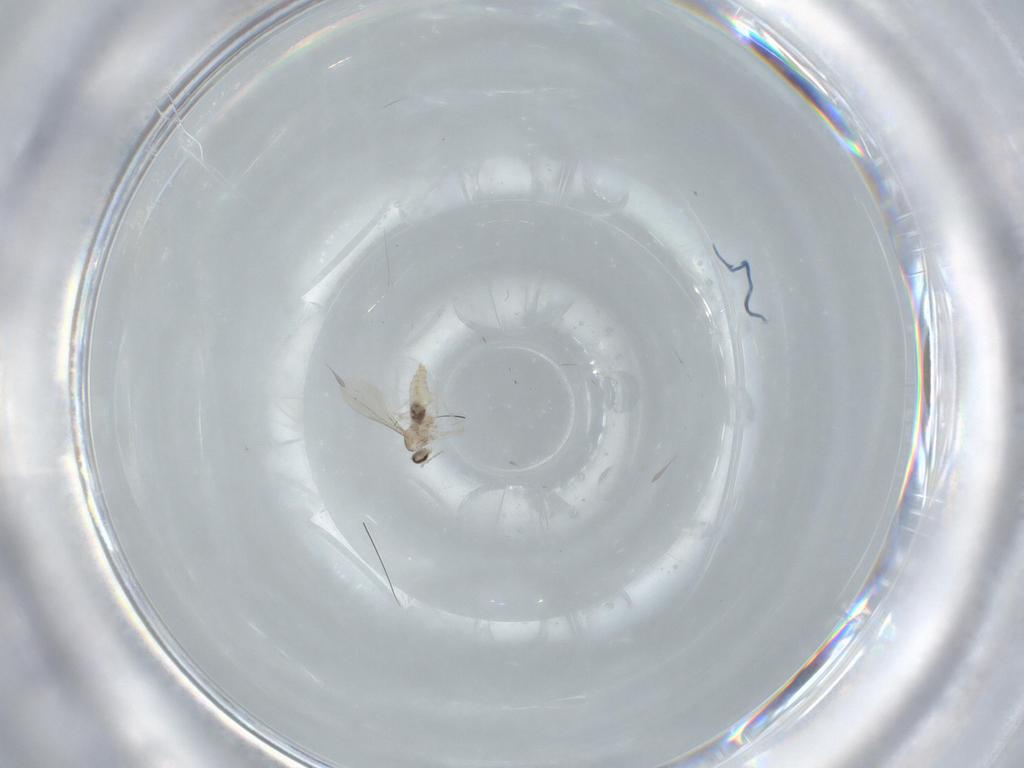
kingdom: Animalia
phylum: Arthropoda
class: Insecta
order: Diptera
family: Cecidomyiidae
